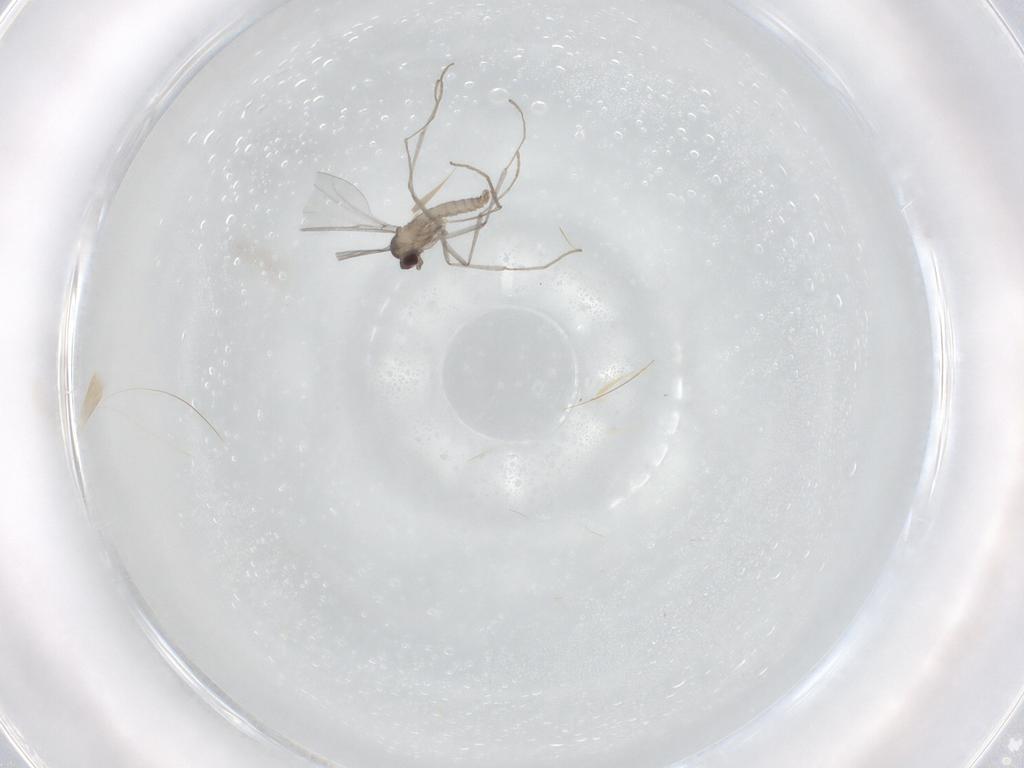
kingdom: Animalia
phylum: Arthropoda
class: Insecta
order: Diptera
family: Cecidomyiidae
